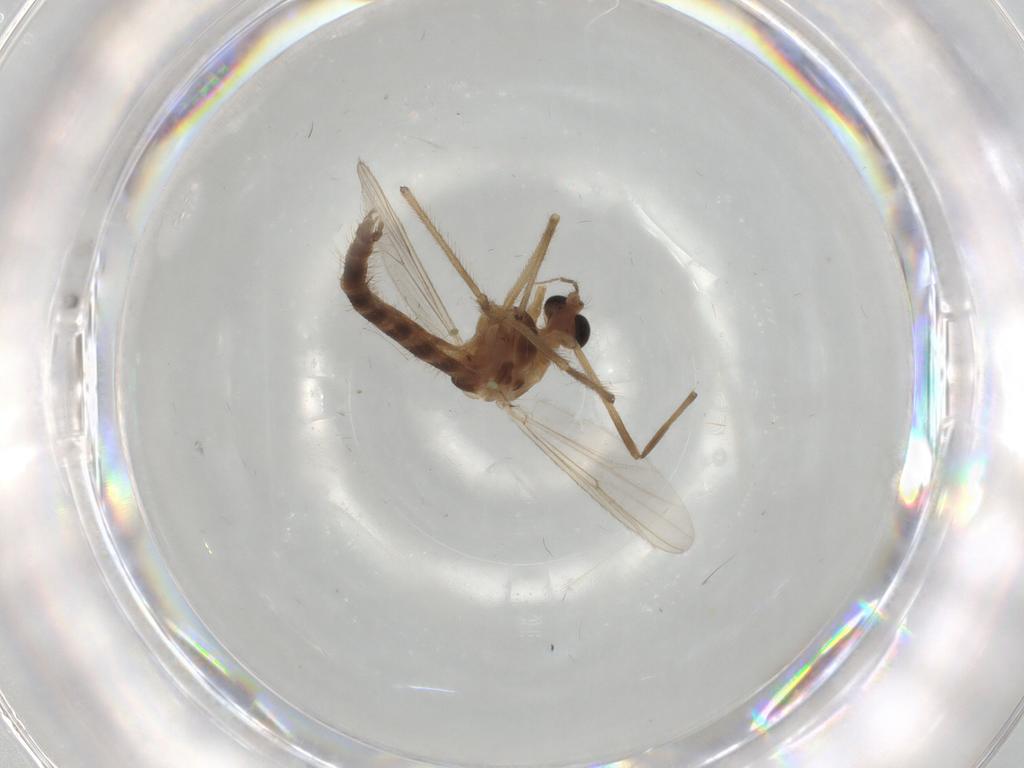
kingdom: Animalia
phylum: Arthropoda
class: Insecta
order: Diptera
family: Chironomidae
